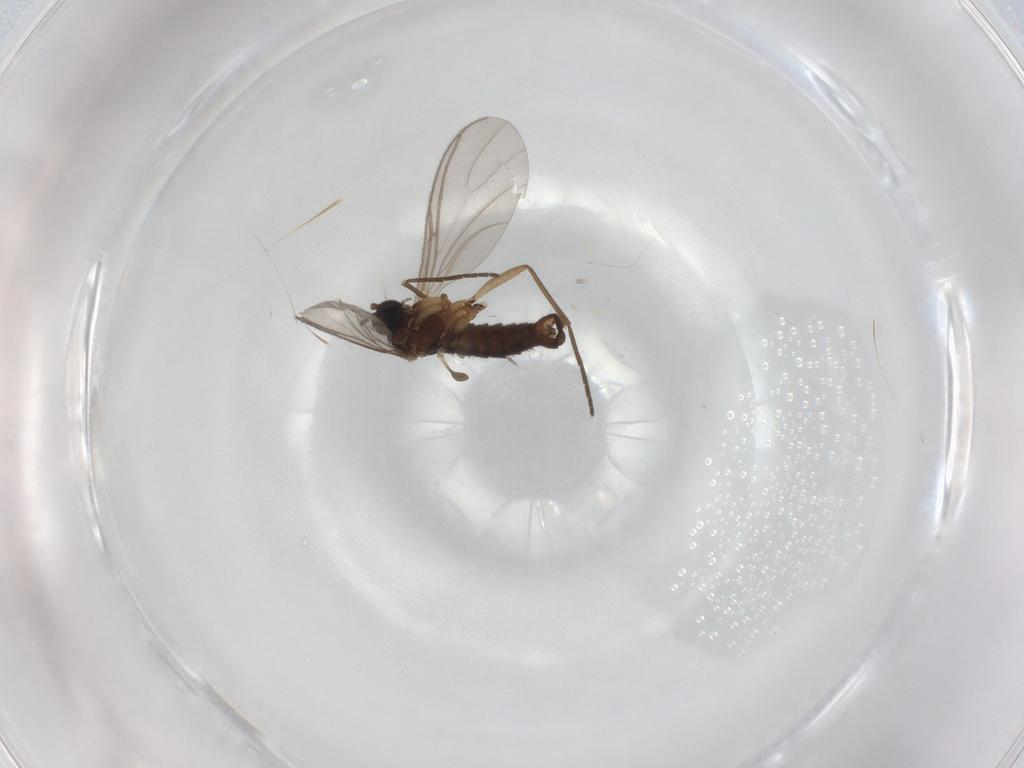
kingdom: Animalia
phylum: Arthropoda
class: Insecta
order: Diptera
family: Sciaridae
